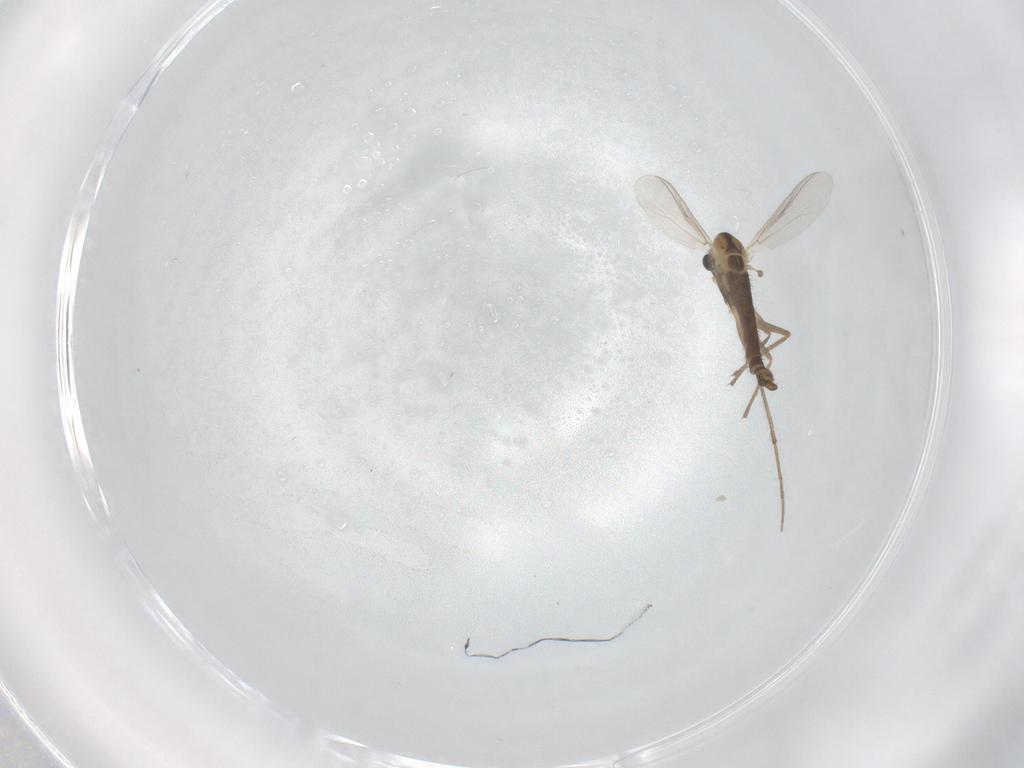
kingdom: Animalia
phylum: Arthropoda
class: Insecta
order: Diptera
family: Chironomidae
